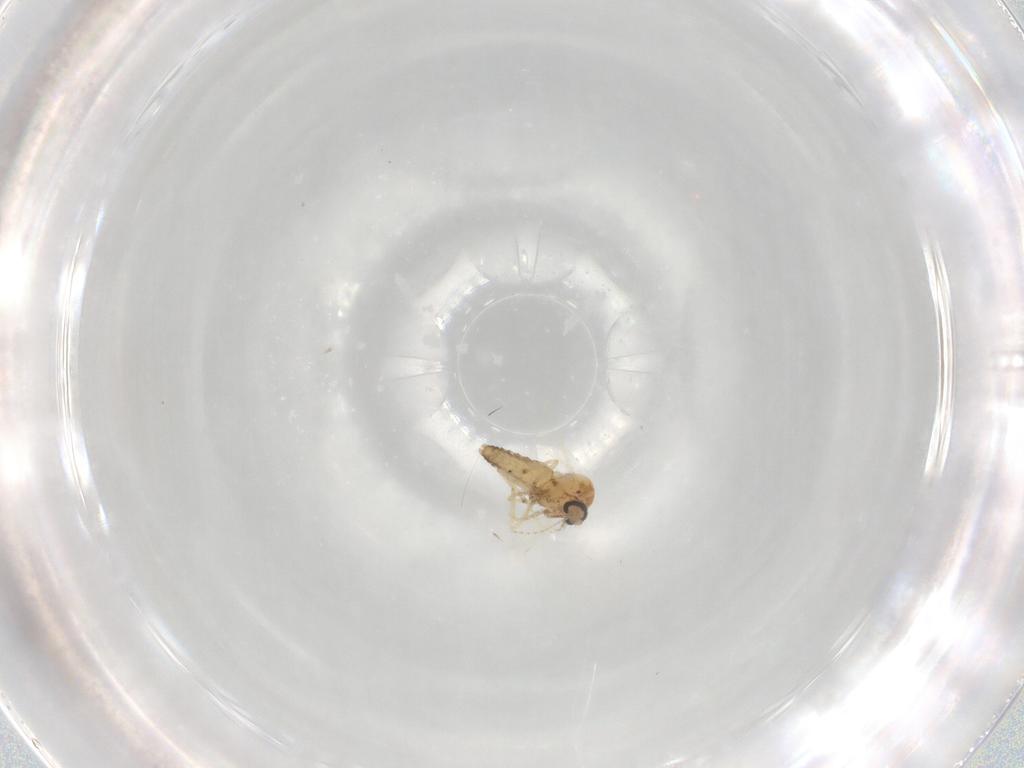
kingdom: Animalia
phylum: Arthropoda
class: Insecta
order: Diptera
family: Ceratopogonidae
